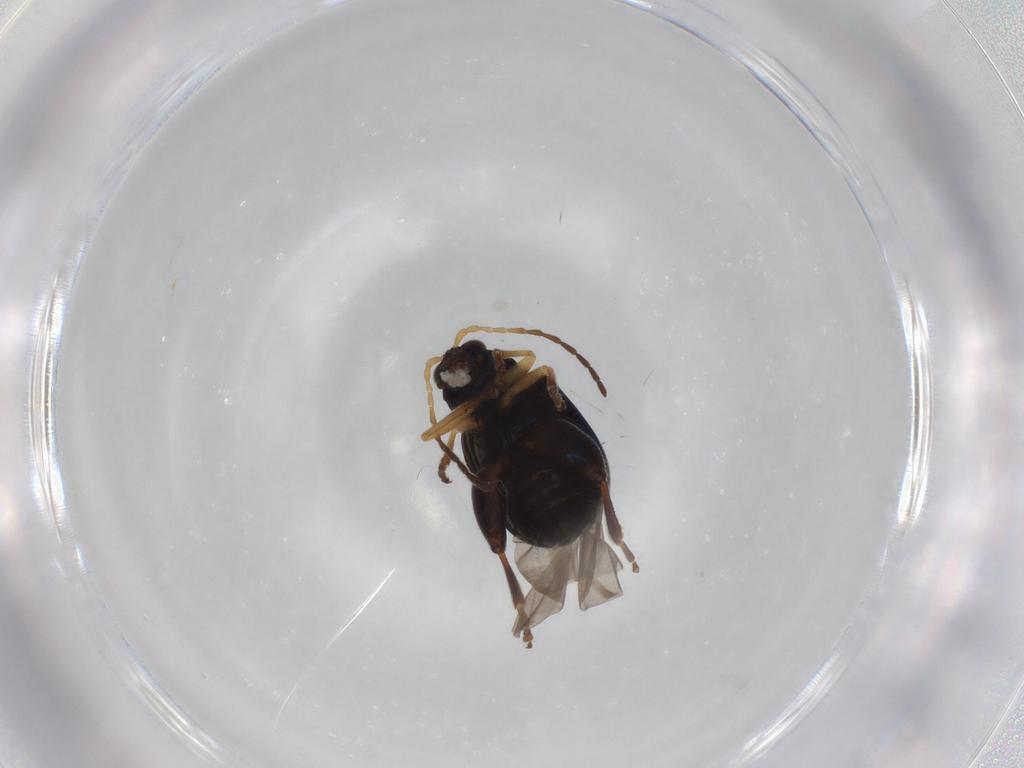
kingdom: Animalia
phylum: Arthropoda
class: Insecta
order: Coleoptera
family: Chrysomelidae
